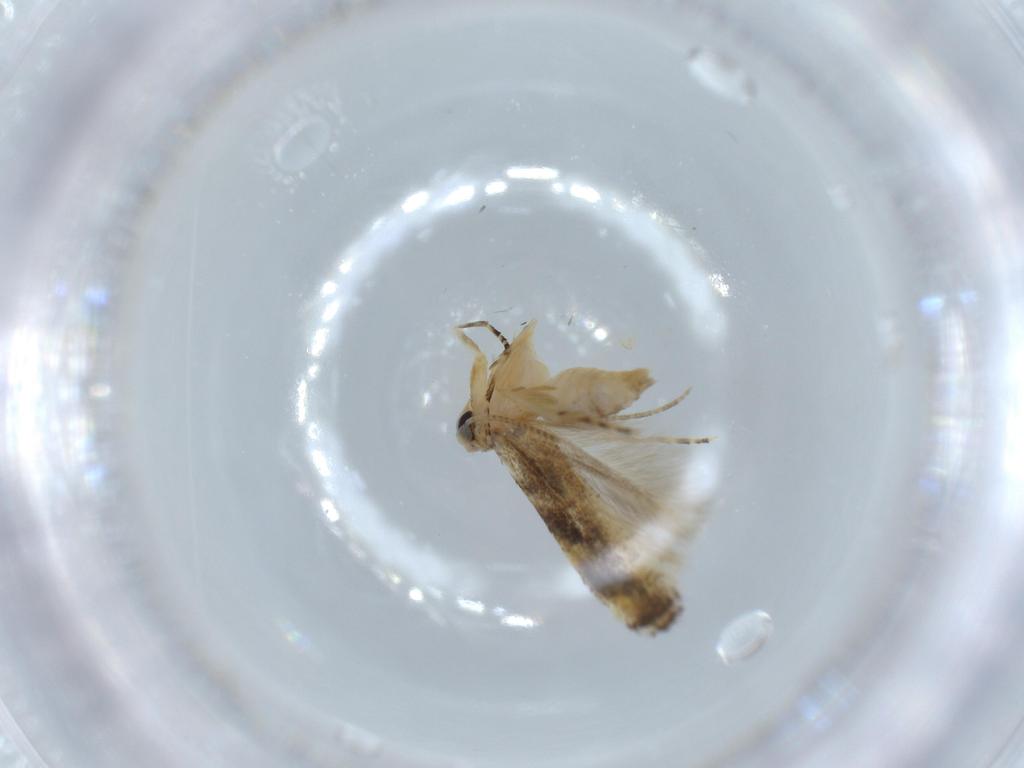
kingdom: Animalia
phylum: Arthropoda
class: Insecta
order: Lepidoptera
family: Bucculatricidae
